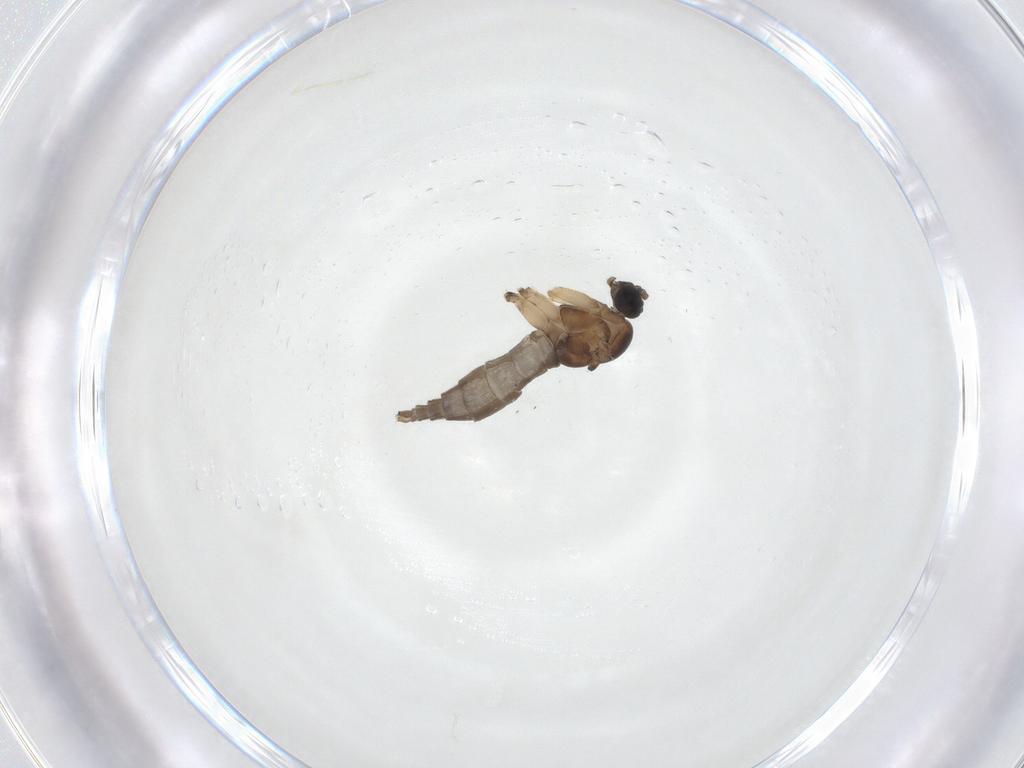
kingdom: Animalia
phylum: Arthropoda
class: Insecta
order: Diptera
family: Sciaridae
